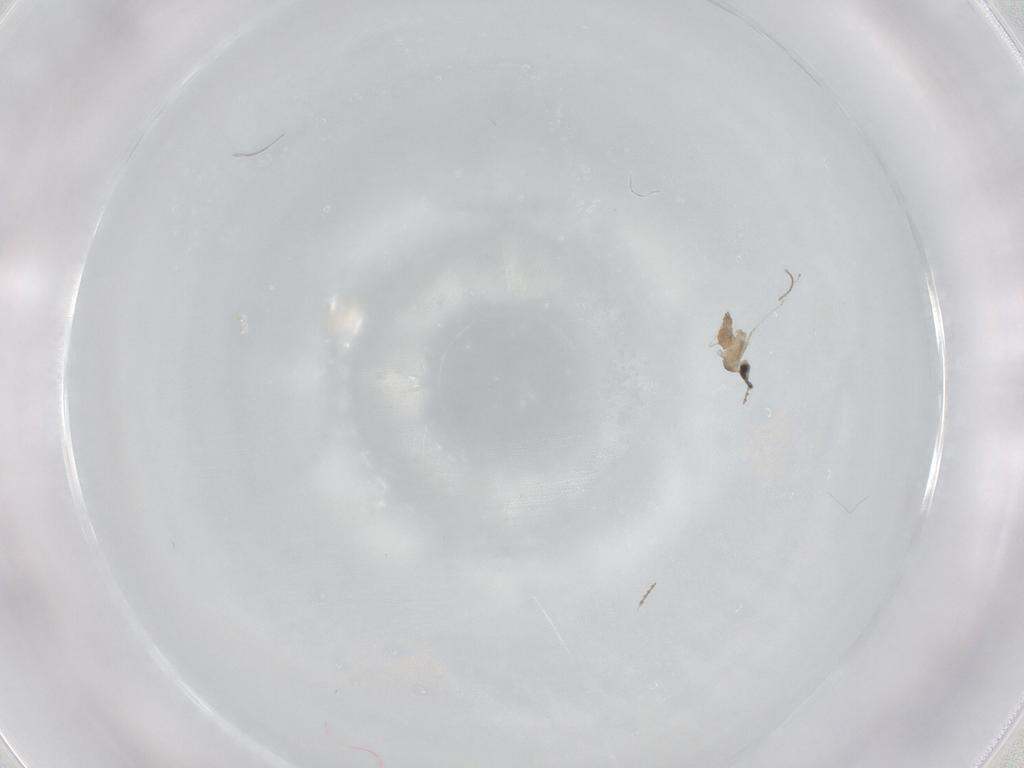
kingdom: Animalia
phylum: Arthropoda
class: Insecta
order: Diptera
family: Cecidomyiidae
